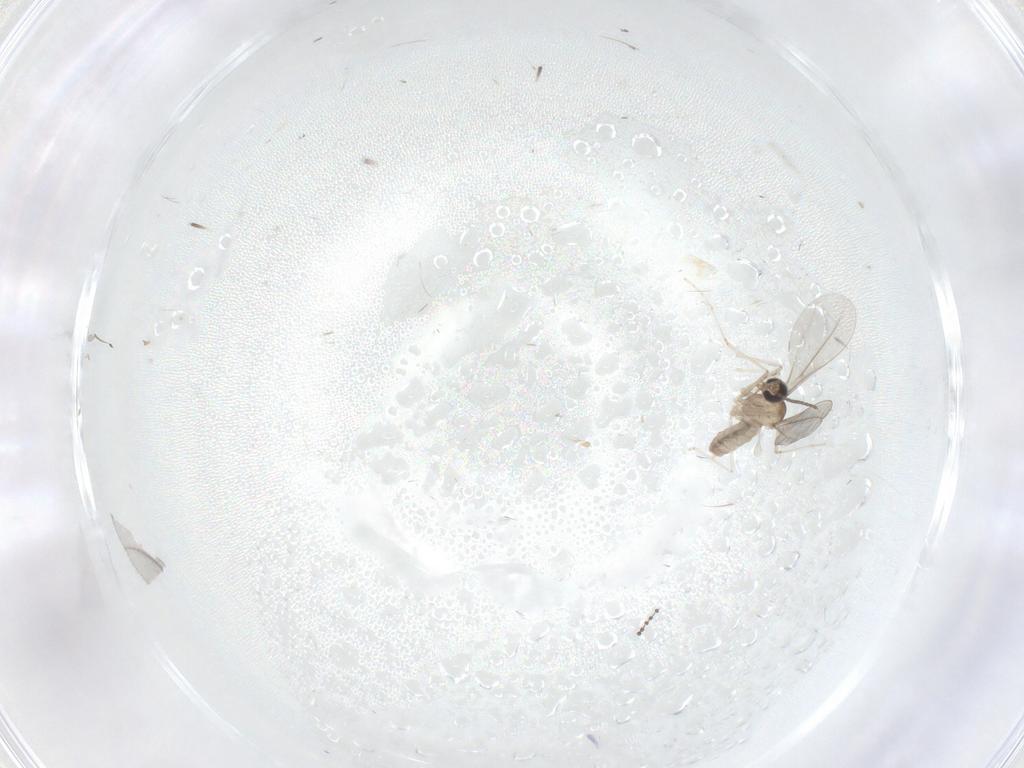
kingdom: Animalia
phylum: Arthropoda
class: Insecta
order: Diptera
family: Cecidomyiidae
